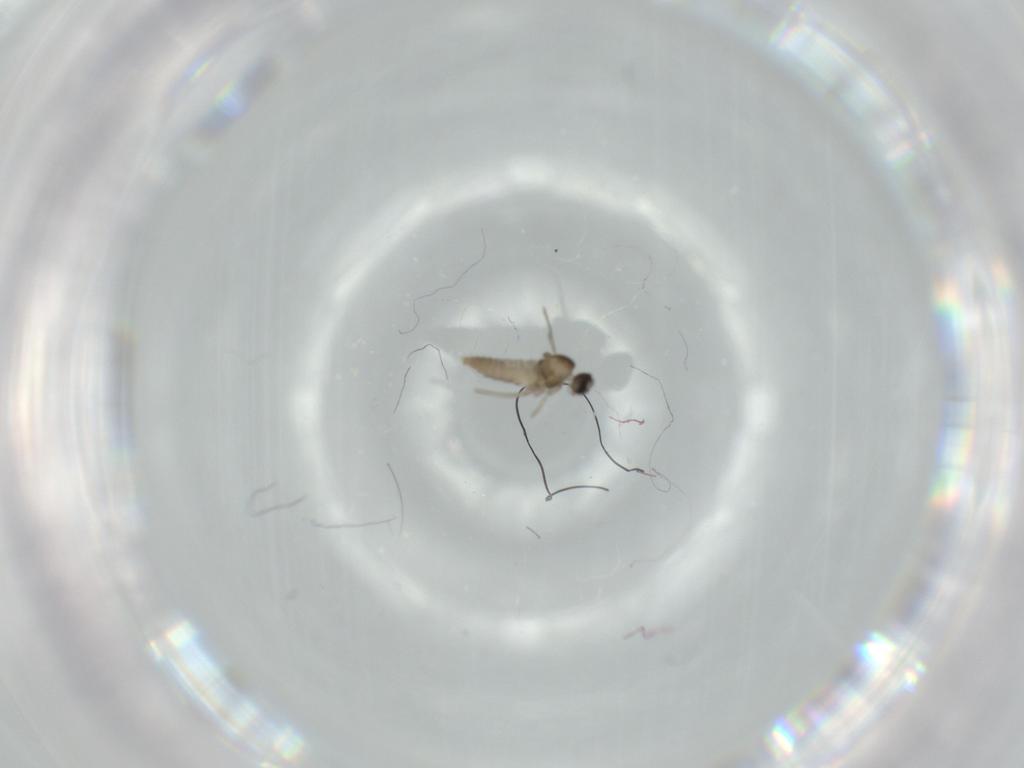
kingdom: Animalia
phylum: Arthropoda
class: Insecta
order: Diptera
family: Cecidomyiidae
